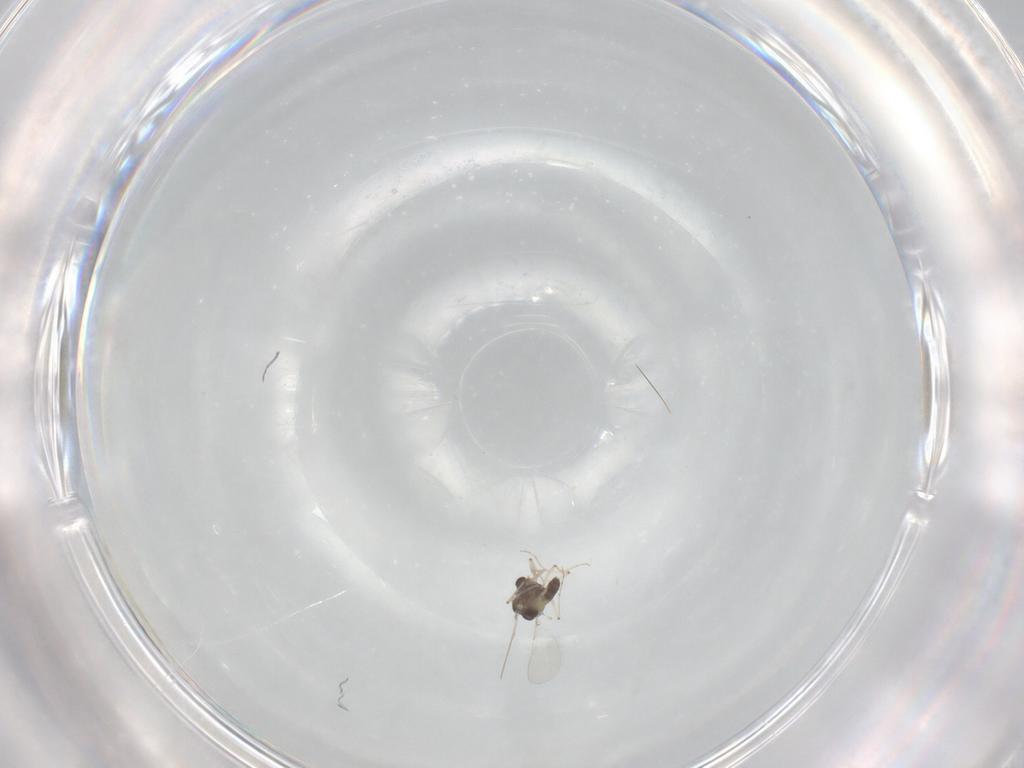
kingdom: Animalia
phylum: Arthropoda
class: Insecta
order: Diptera
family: Chironomidae
